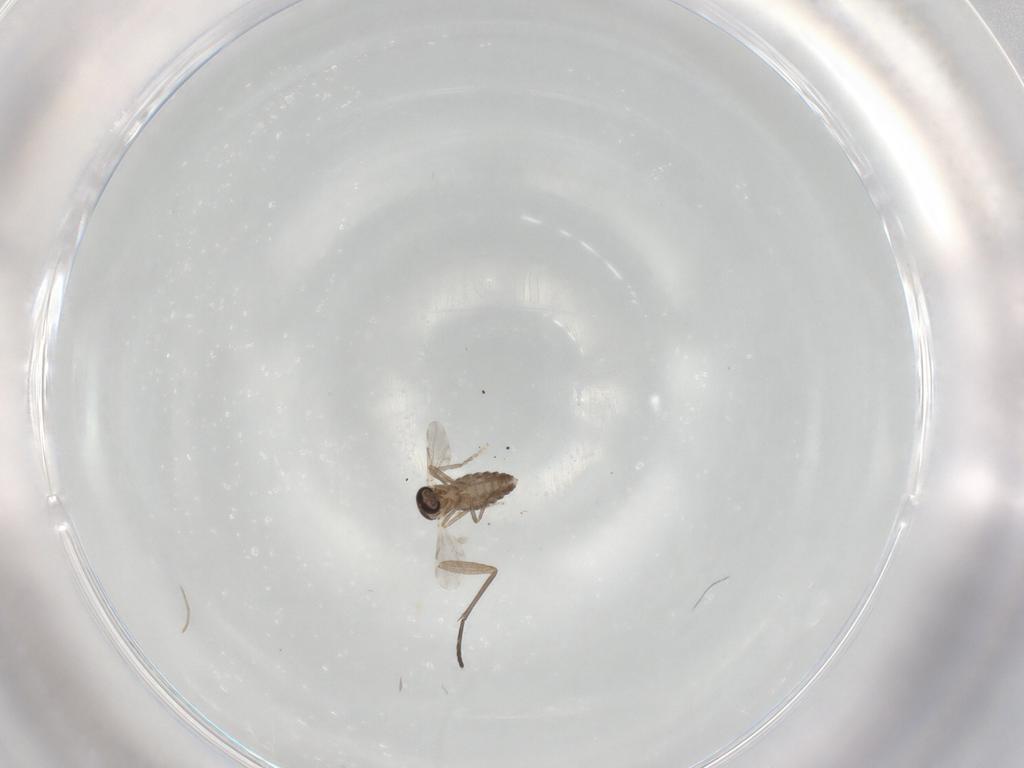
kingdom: Animalia
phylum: Arthropoda
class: Insecta
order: Diptera
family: Ceratopogonidae
